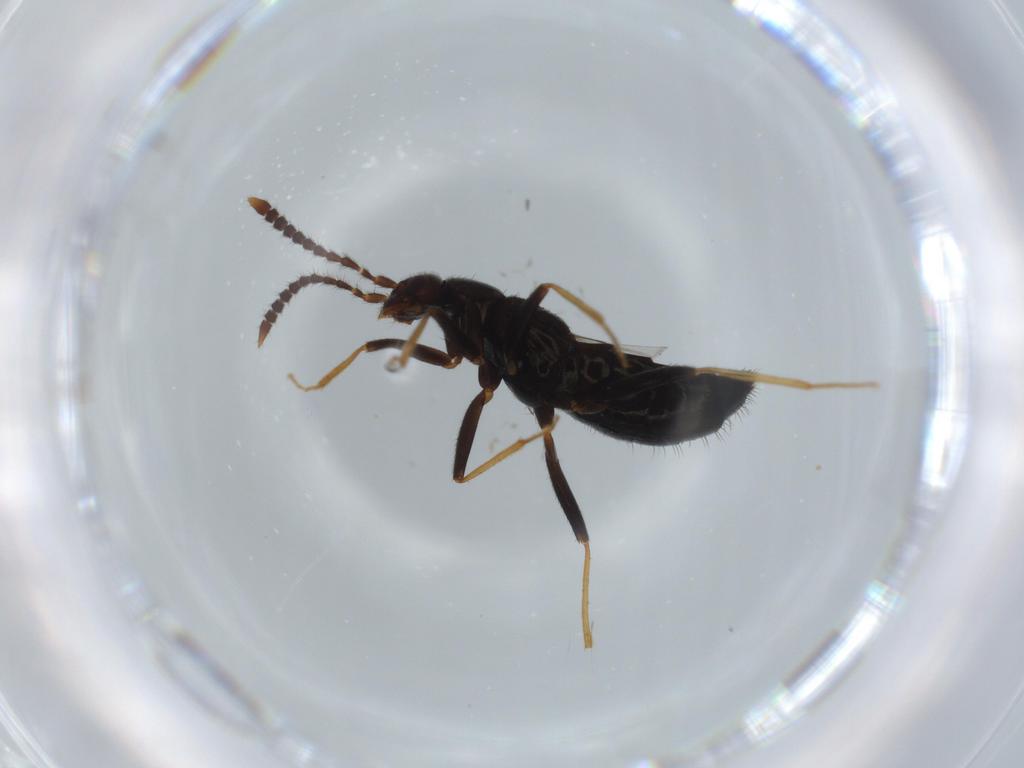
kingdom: Animalia
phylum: Arthropoda
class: Insecta
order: Coleoptera
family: Staphylinidae
